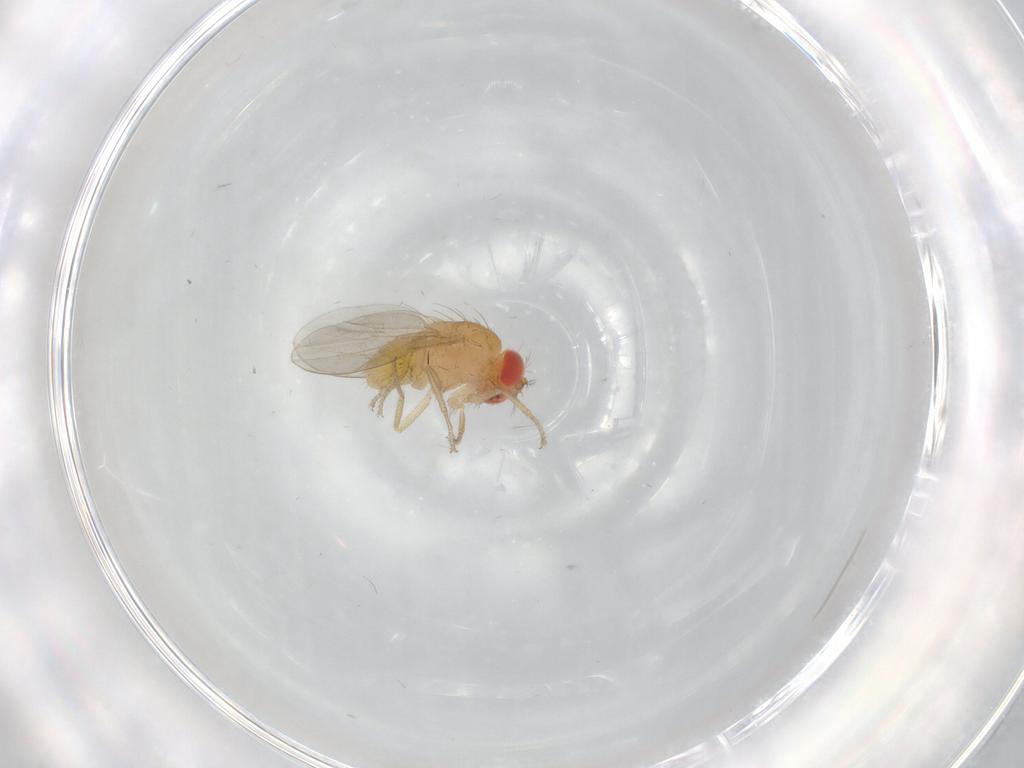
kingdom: Animalia
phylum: Arthropoda
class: Insecta
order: Diptera
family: Drosophilidae
